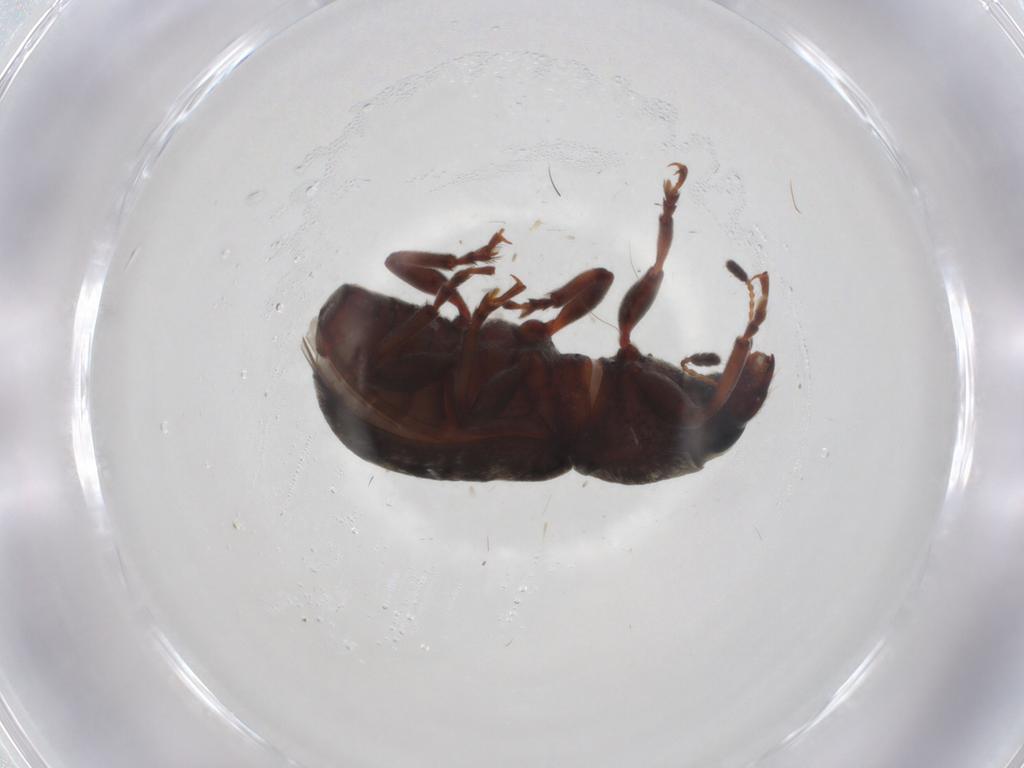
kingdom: Animalia
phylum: Arthropoda
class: Insecta
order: Coleoptera
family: Anthribidae
